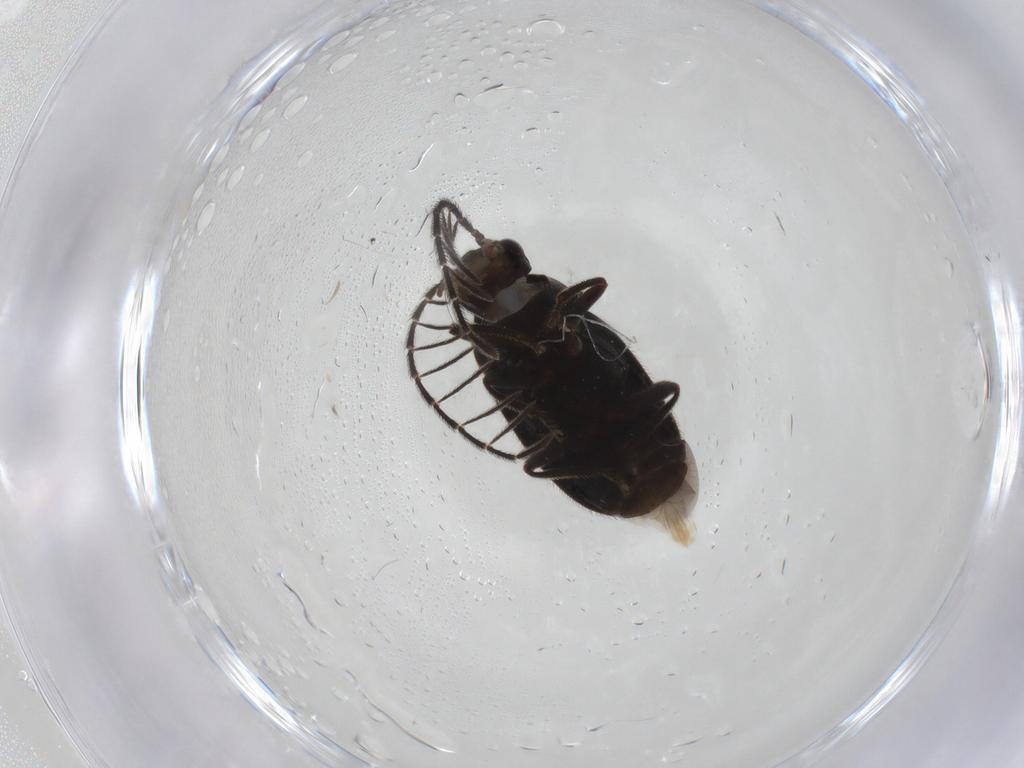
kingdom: Animalia
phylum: Arthropoda
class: Insecta
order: Coleoptera
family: Ptilodactylidae
